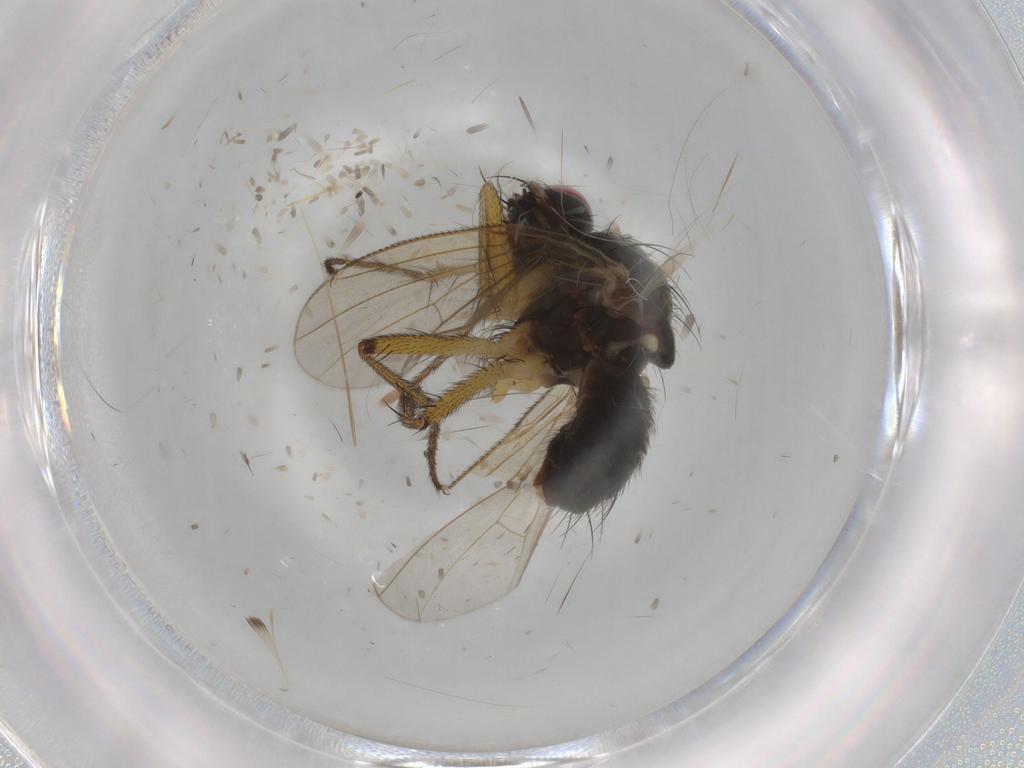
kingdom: Animalia
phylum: Arthropoda
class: Insecta
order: Diptera
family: Muscidae
